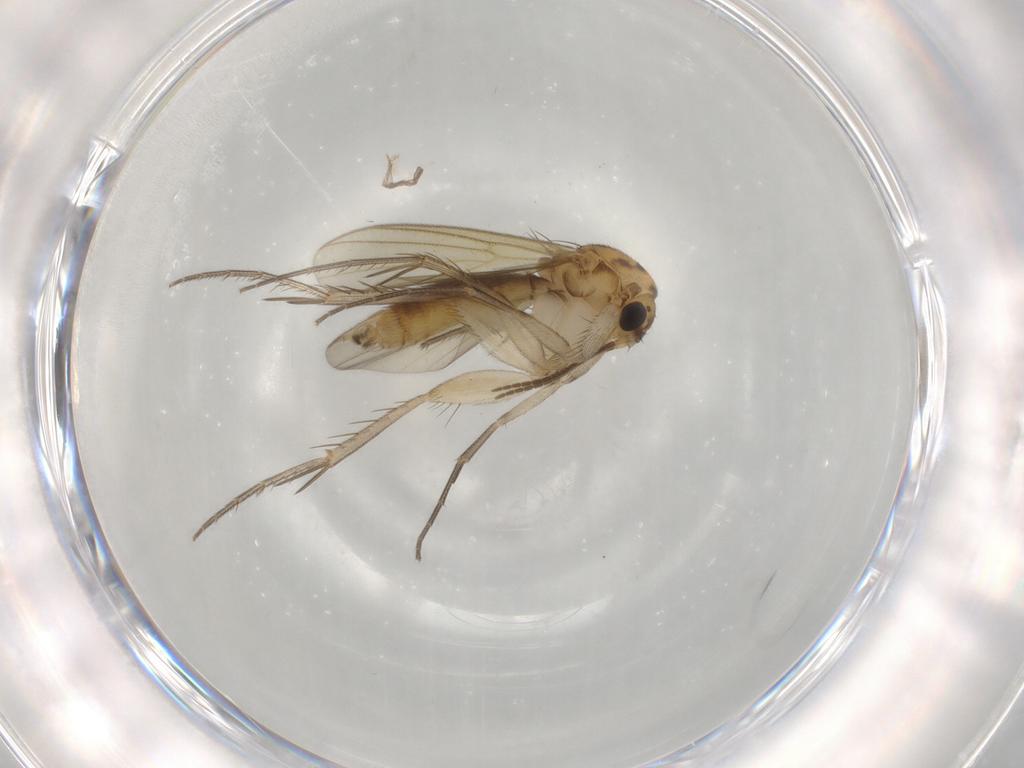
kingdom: Animalia
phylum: Arthropoda
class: Insecta
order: Diptera
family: Mycetophilidae
